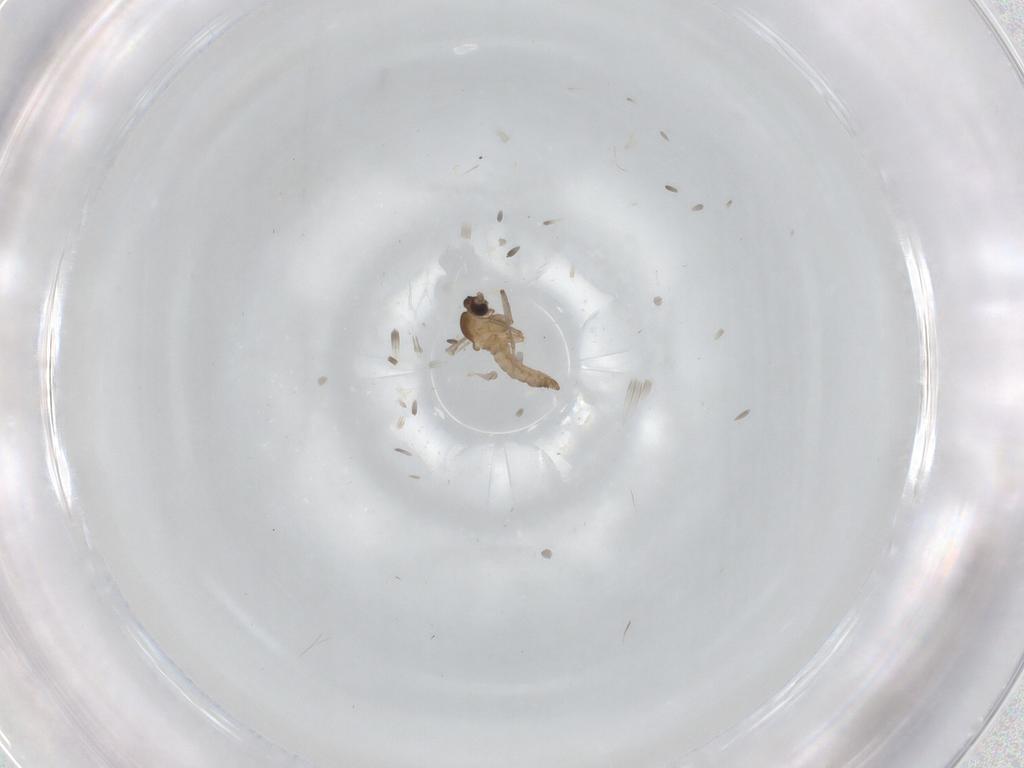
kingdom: Animalia
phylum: Arthropoda
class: Insecta
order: Diptera
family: Cecidomyiidae
